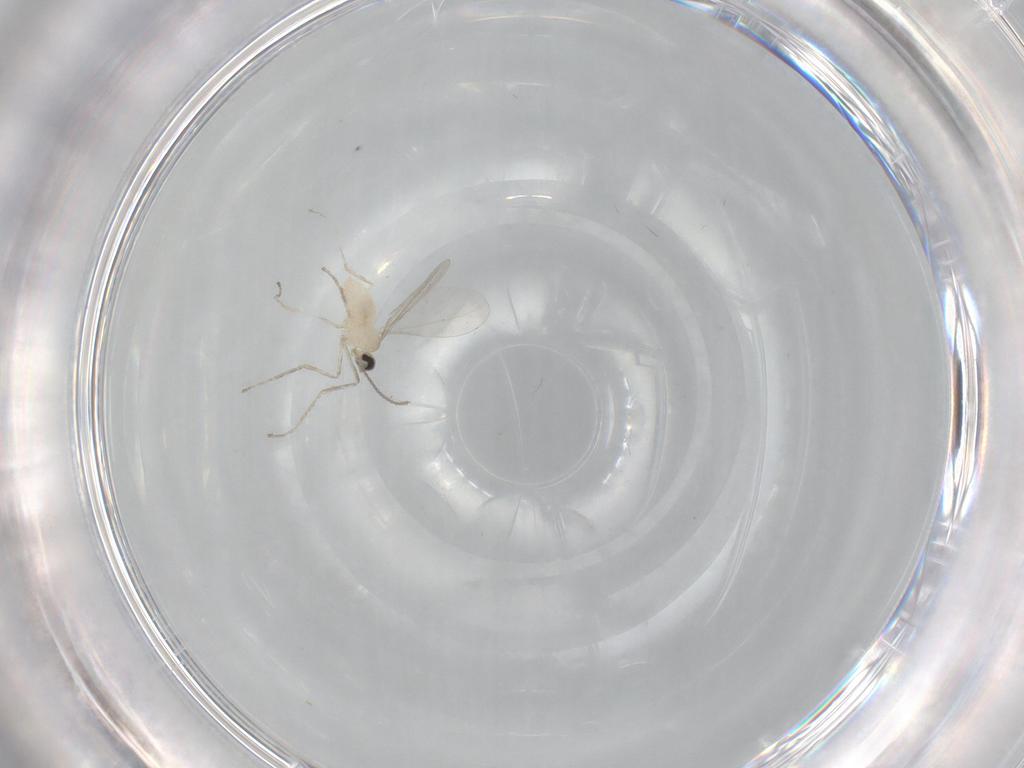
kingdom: Animalia
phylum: Arthropoda
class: Insecta
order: Diptera
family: Cecidomyiidae
